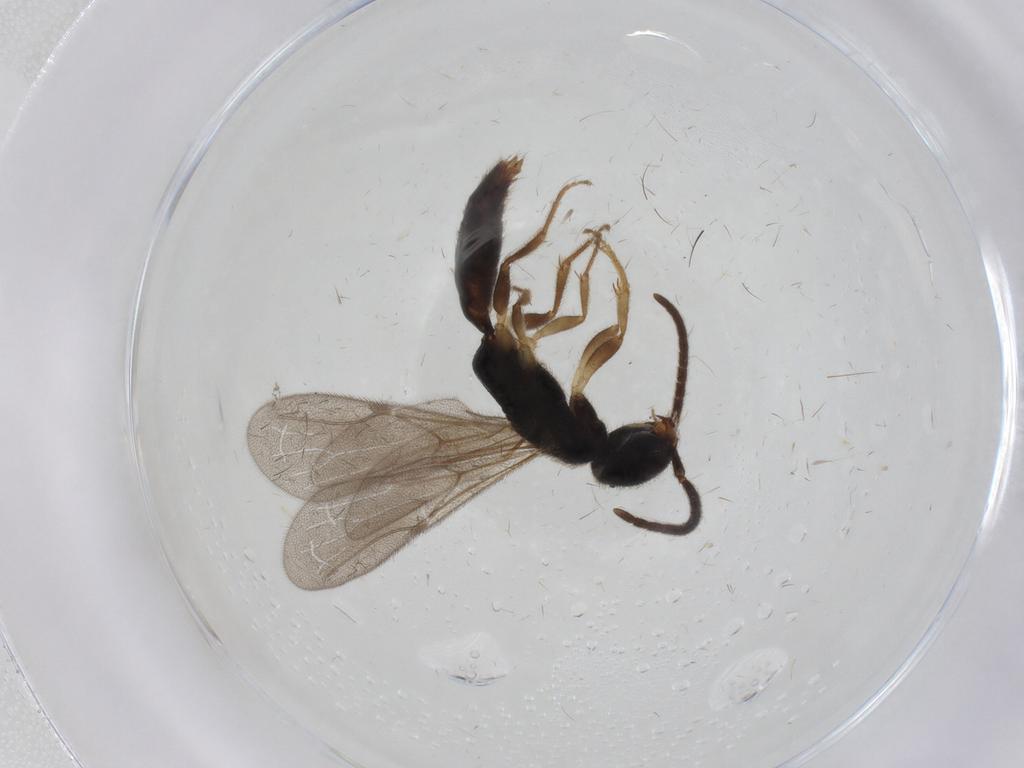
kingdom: Animalia
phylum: Arthropoda
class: Insecta
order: Hymenoptera
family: Bethylidae
